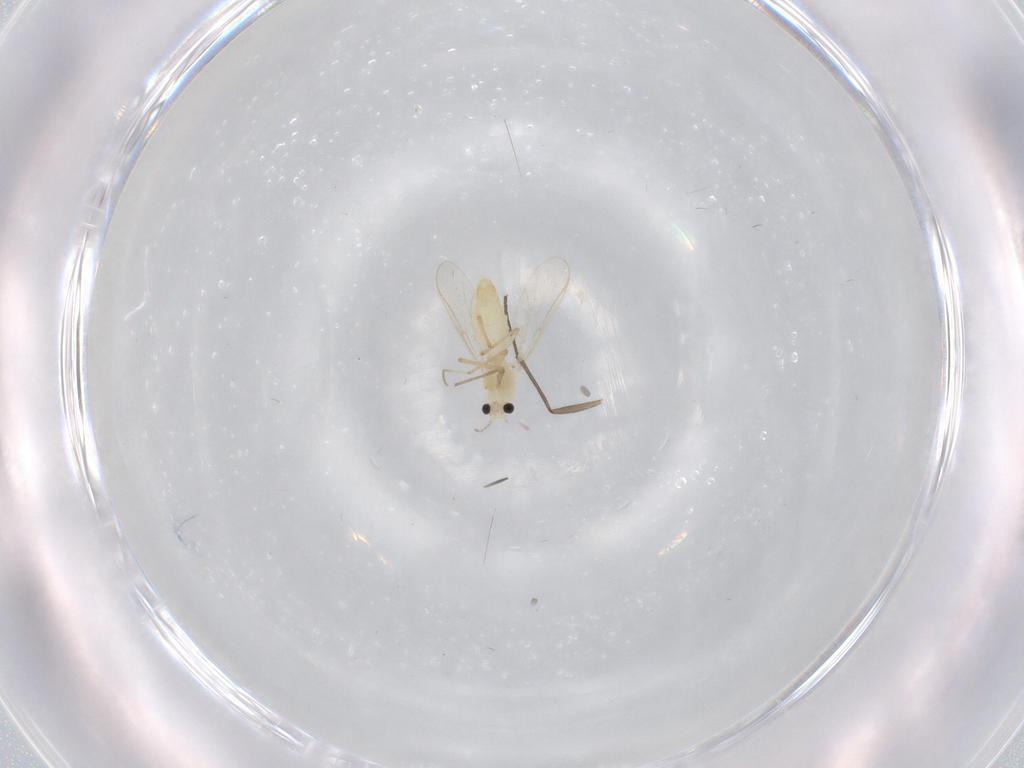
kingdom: Animalia
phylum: Arthropoda
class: Insecta
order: Diptera
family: Chironomidae
